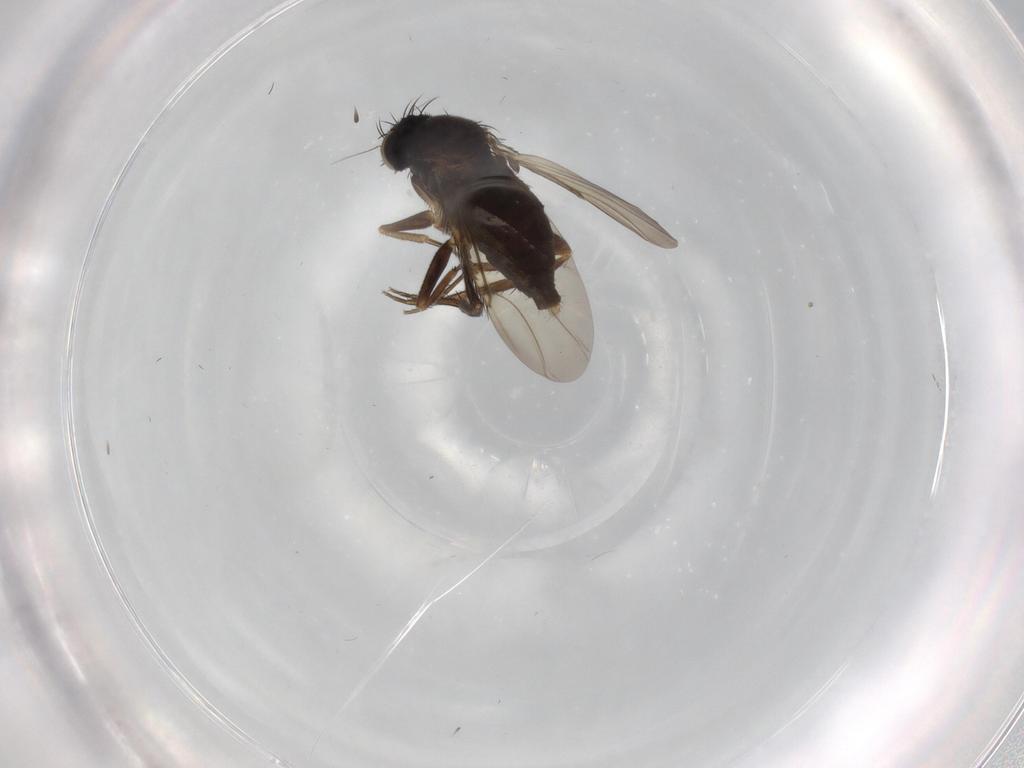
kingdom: Animalia
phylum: Arthropoda
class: Insecta
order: Diptera
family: Phoridae
